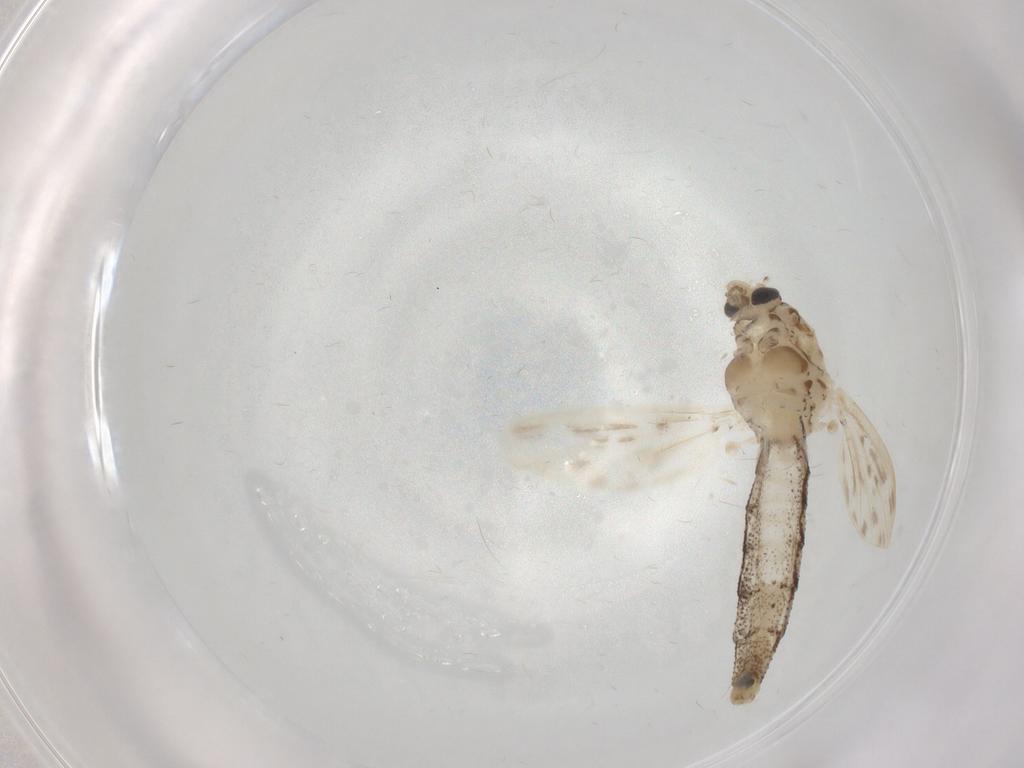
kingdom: Animalia
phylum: Arthropoda
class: Insecta
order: Diptera
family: Chaoboridae
